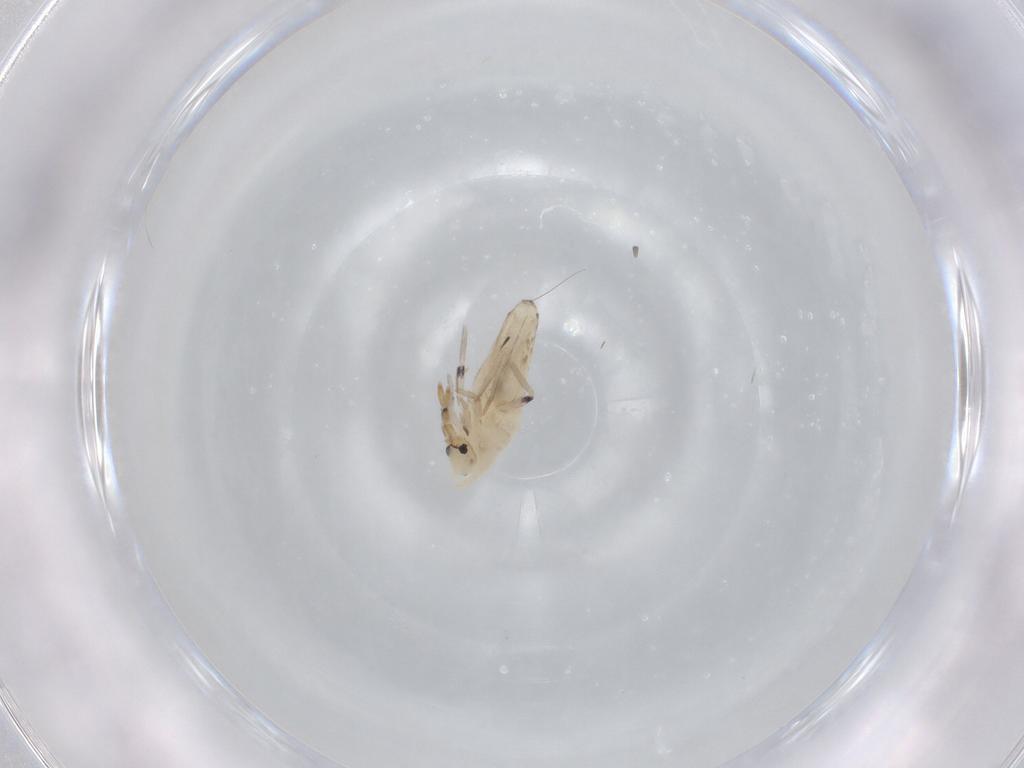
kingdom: Animalia
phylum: Arthropoda
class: Collembola
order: Entomobryomorpha
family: Entomobryidae
